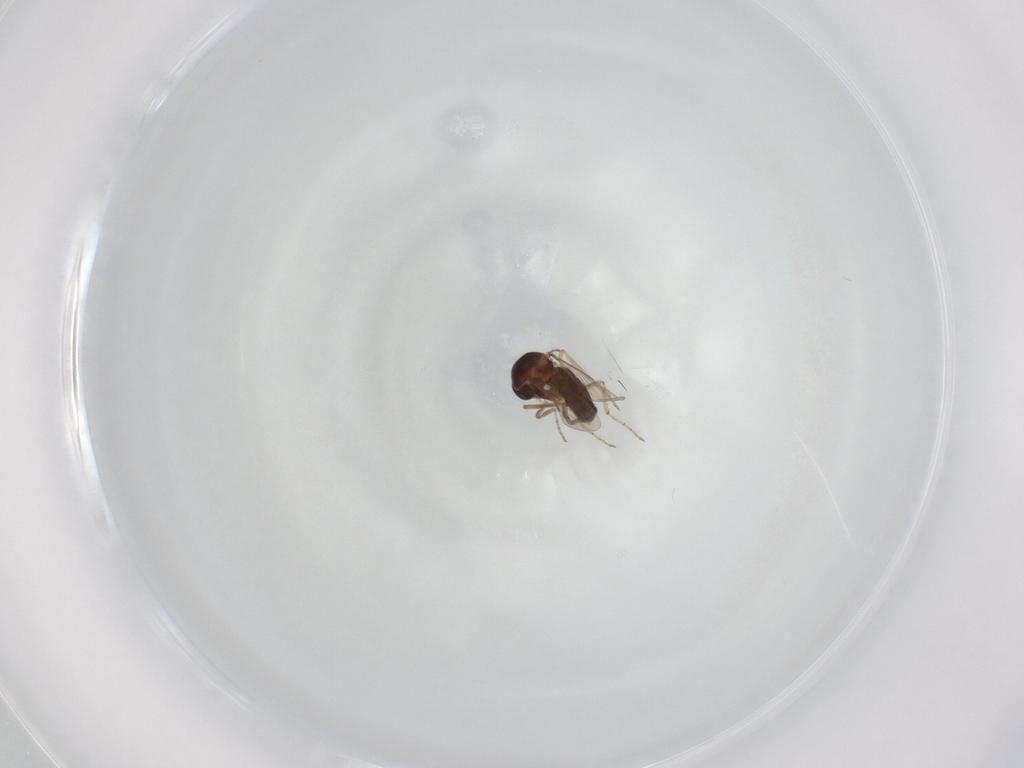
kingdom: Animalia
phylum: Arthropoda
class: Insecta
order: Diptera
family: Ceratopogonidae
